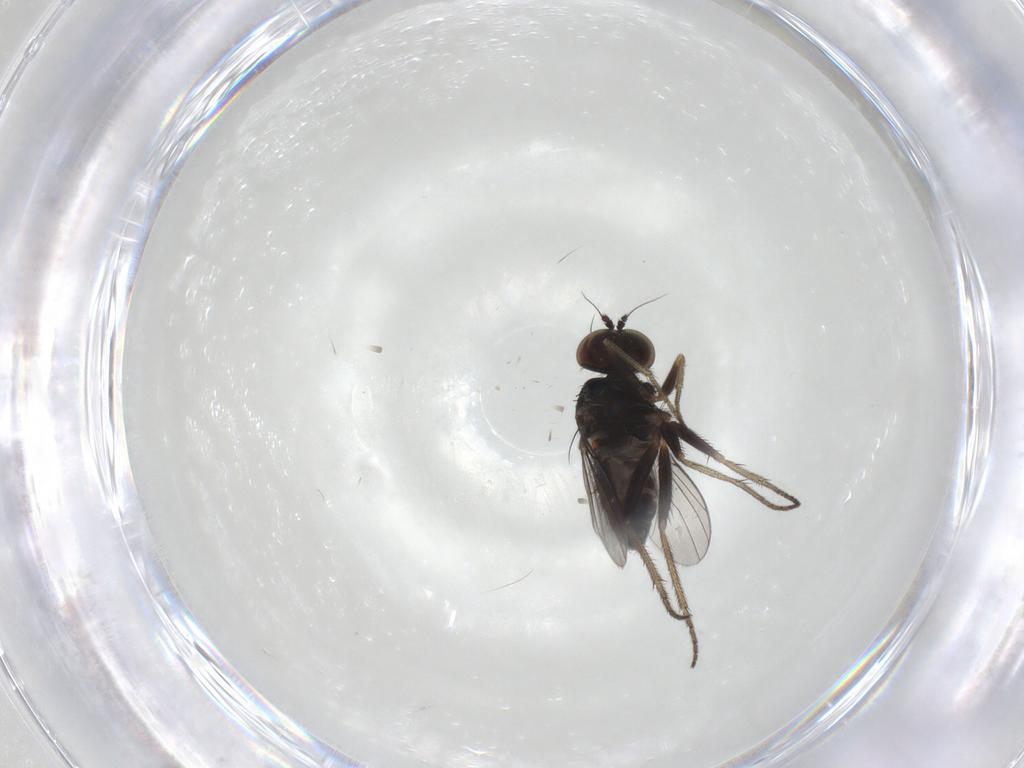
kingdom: Animalia
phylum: Arthropoda
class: Insecta
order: Diptera
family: Dolichopodidae
